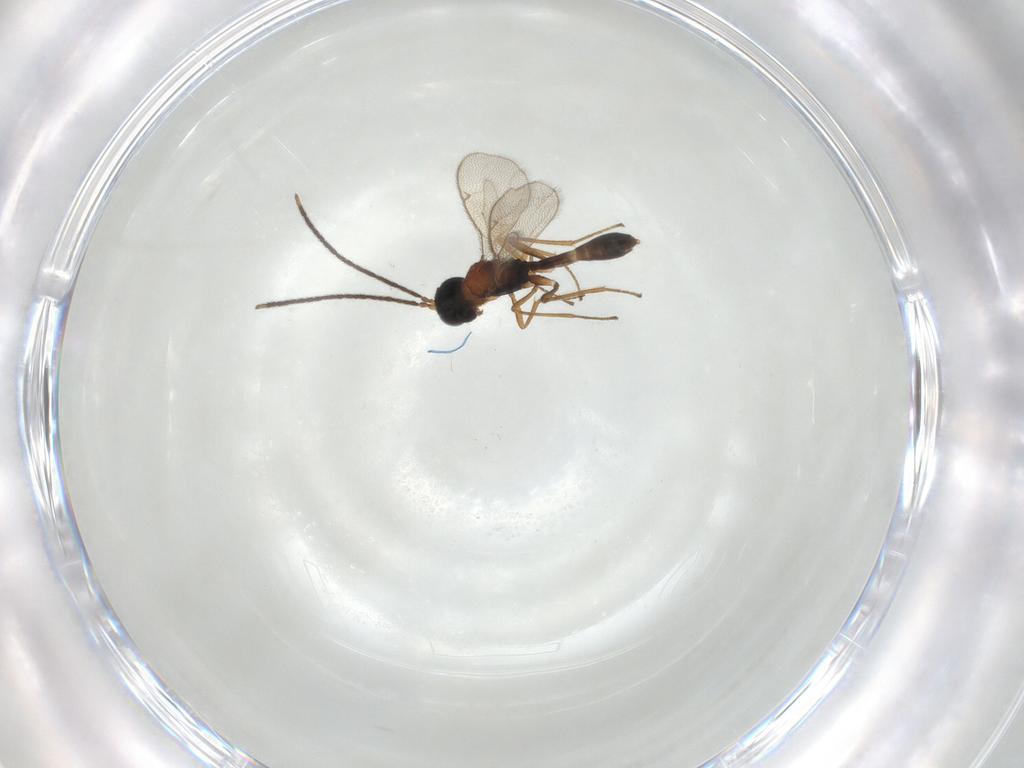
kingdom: Animalia
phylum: Arthropoda
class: Insecta
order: Hymenoptera
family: Pteromalidae
